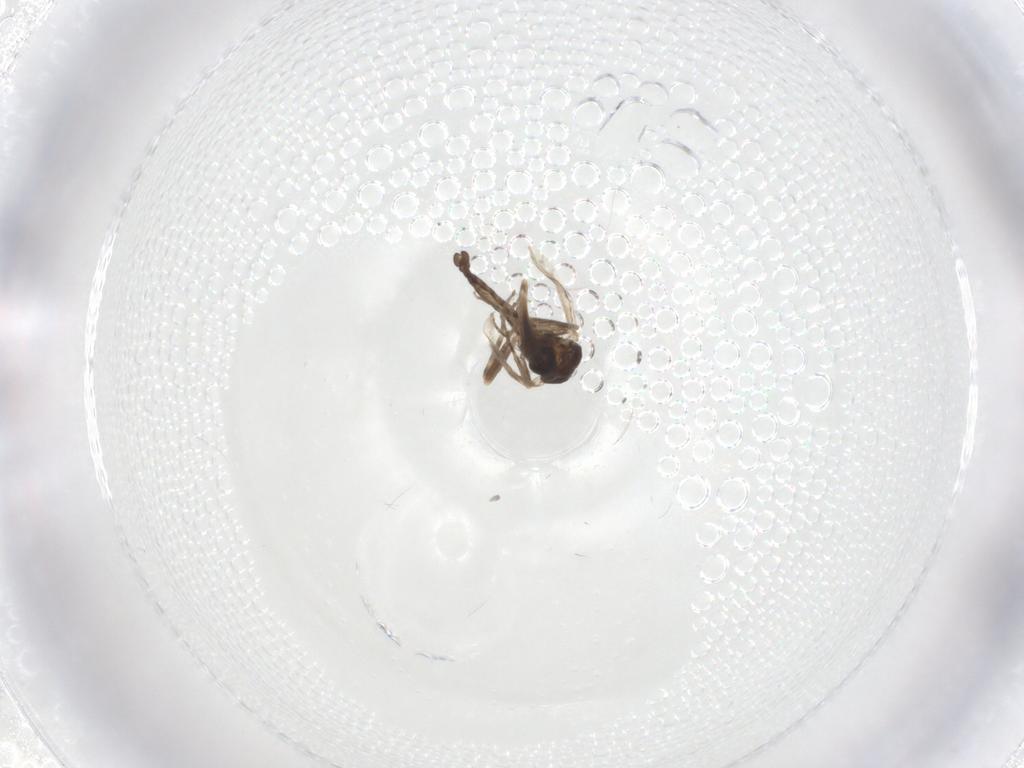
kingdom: Animalia
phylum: Arthropoda
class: Insecta
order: Diptera
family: Ceratopogonidae
